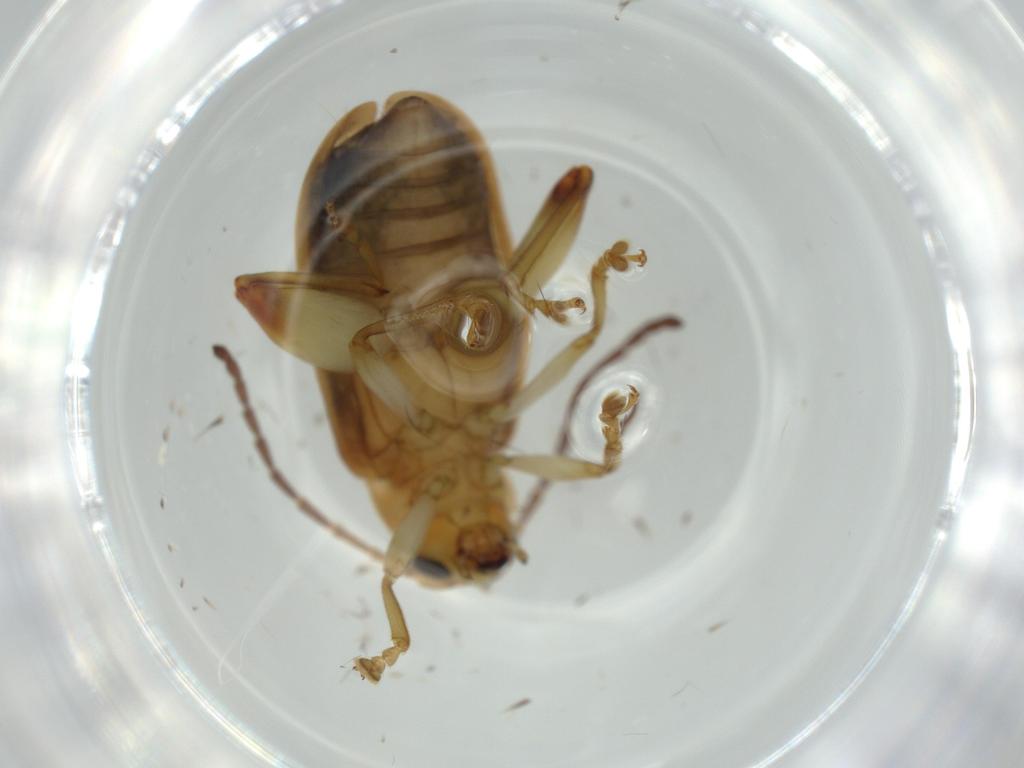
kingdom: Animalia
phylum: Arthropoda
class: Insecta
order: Coleoptera
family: Chrysomelidae
